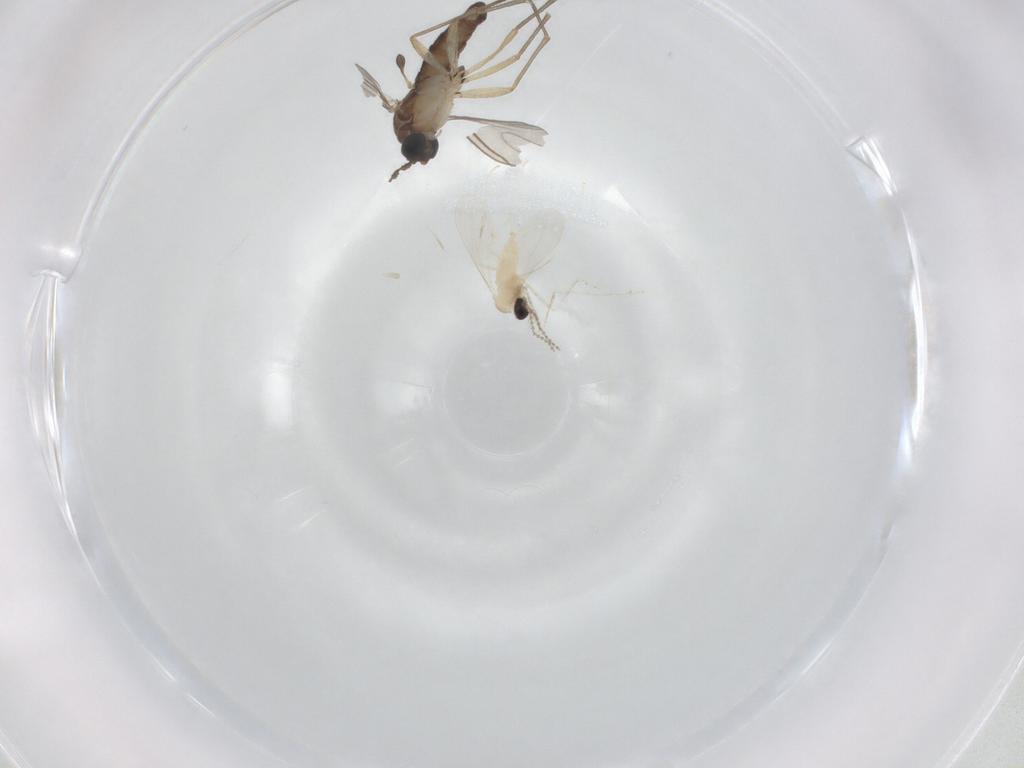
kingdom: Animalia
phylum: Arthropoda
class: Insecta
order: Diptera
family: Sciaridae
